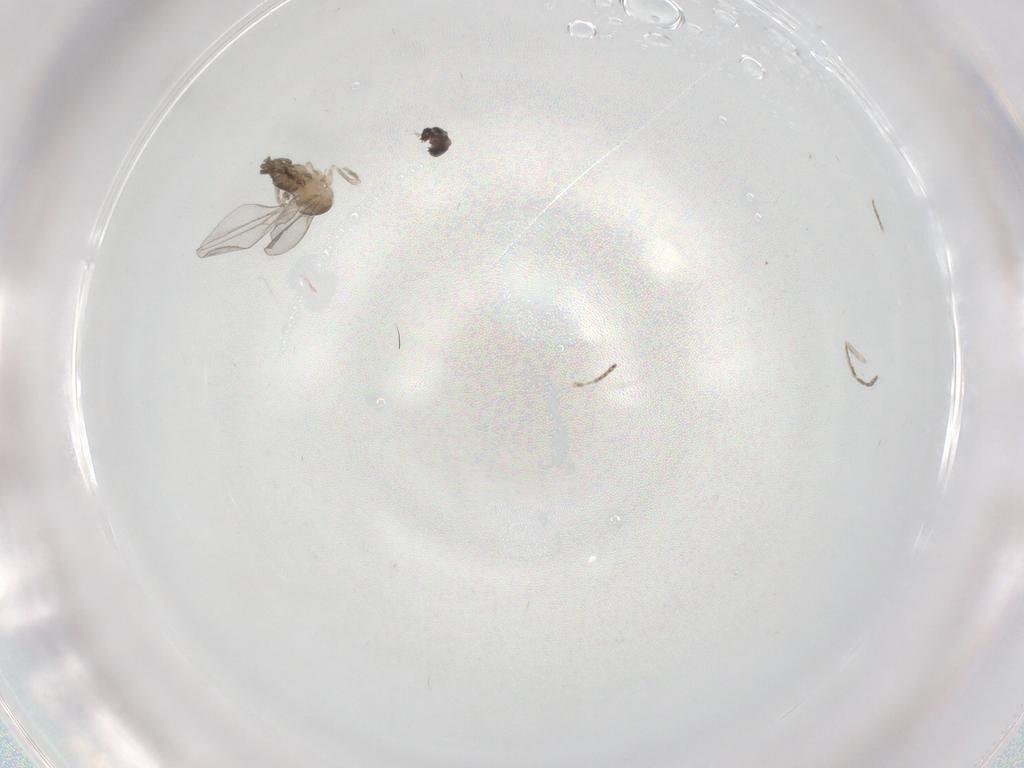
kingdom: Animalia
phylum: Arthropoda
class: Insecta
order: Diptera
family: Cecidomyiidae
